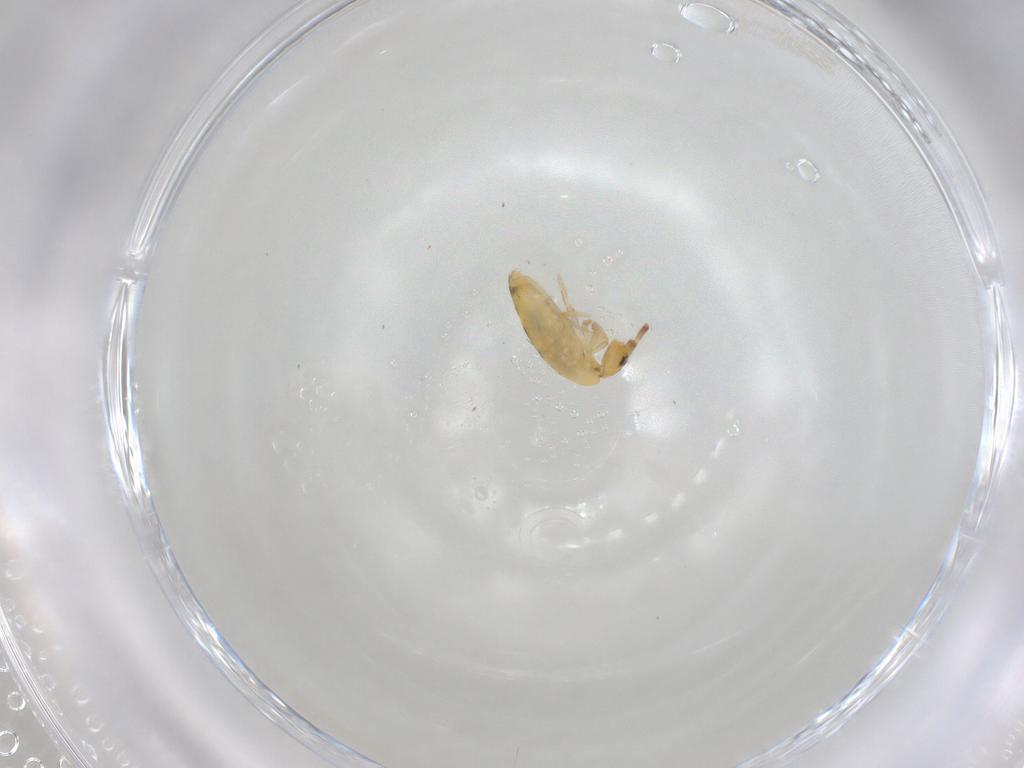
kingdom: Animalia
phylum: Arthropoda
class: Collembola
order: Entomobryomorpha
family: Entomobryidae
